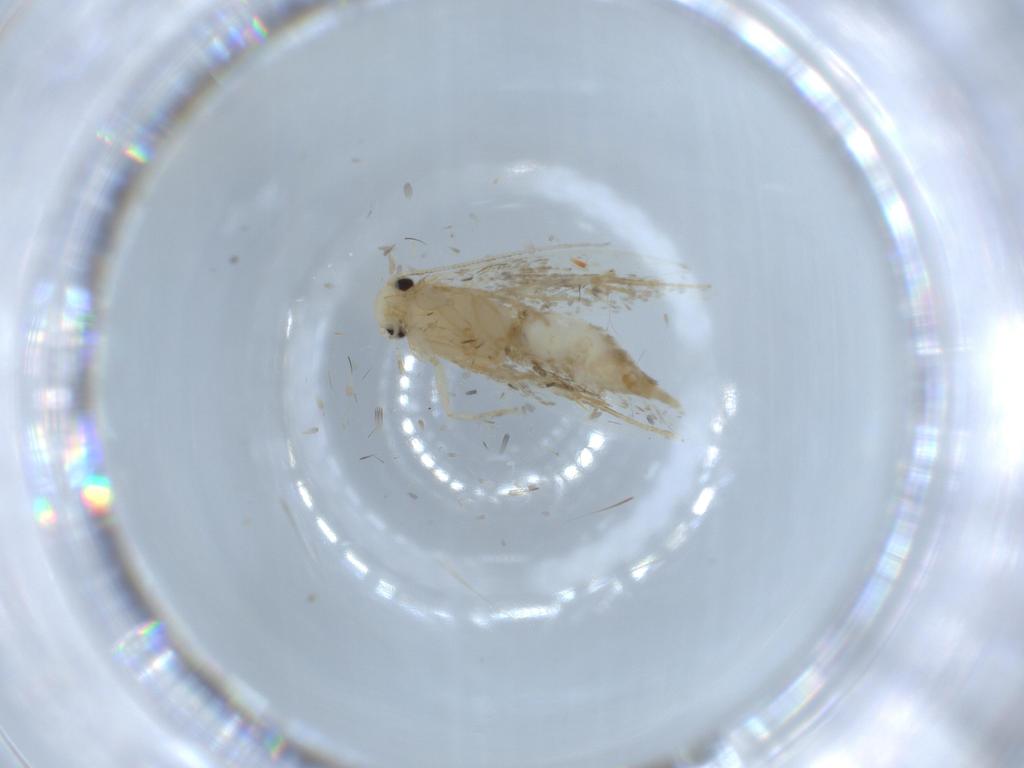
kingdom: Animalia
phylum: Arthropoda
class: Insecta
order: Lepidoptera
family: Tineidae
